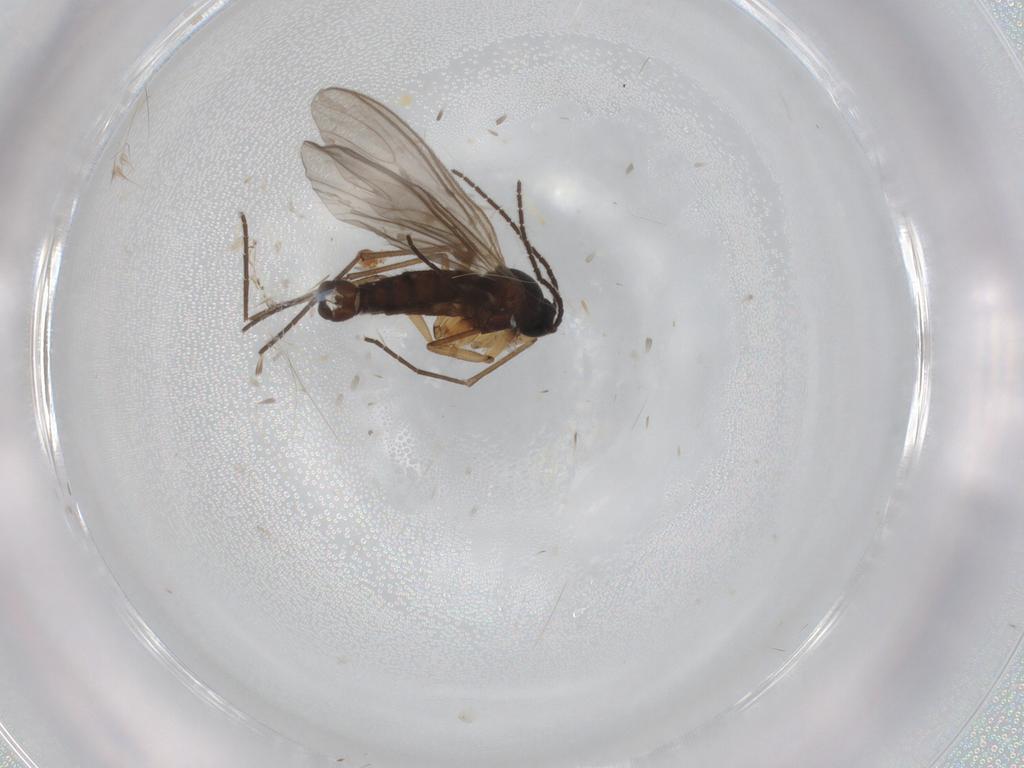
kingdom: Animalia
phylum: Arthropoda
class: Insecta
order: Diptera
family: Sciaridae
